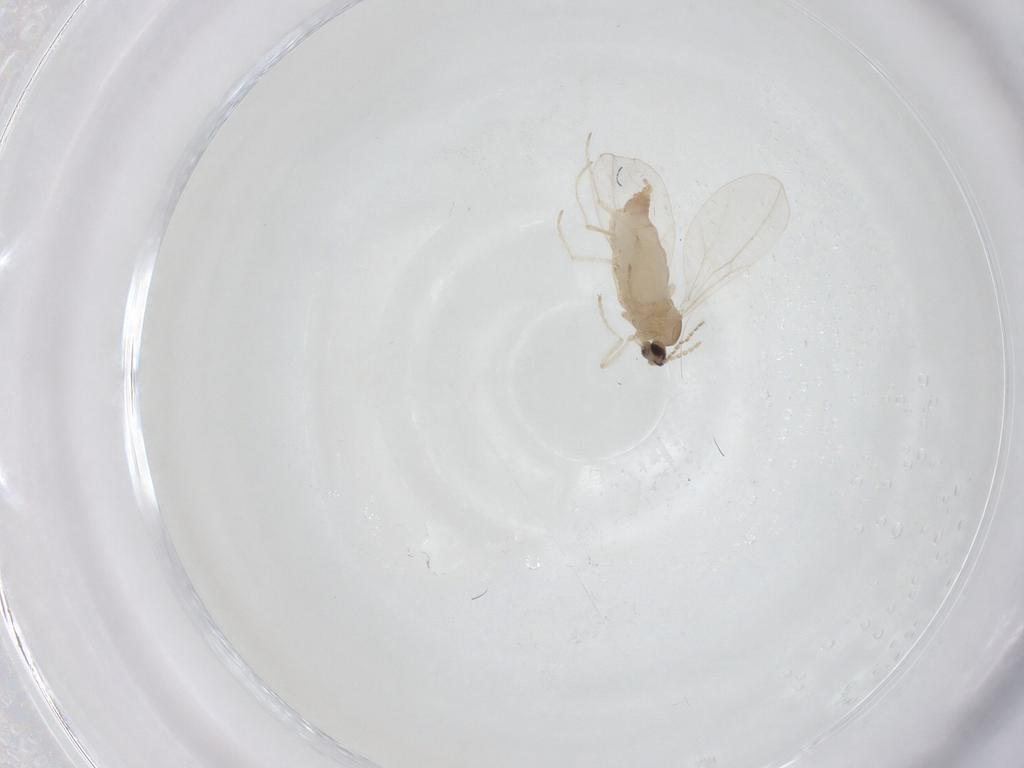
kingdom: Animalia
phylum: Arthropoda
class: Insecta
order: Diptera
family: Cecidomyiidae
